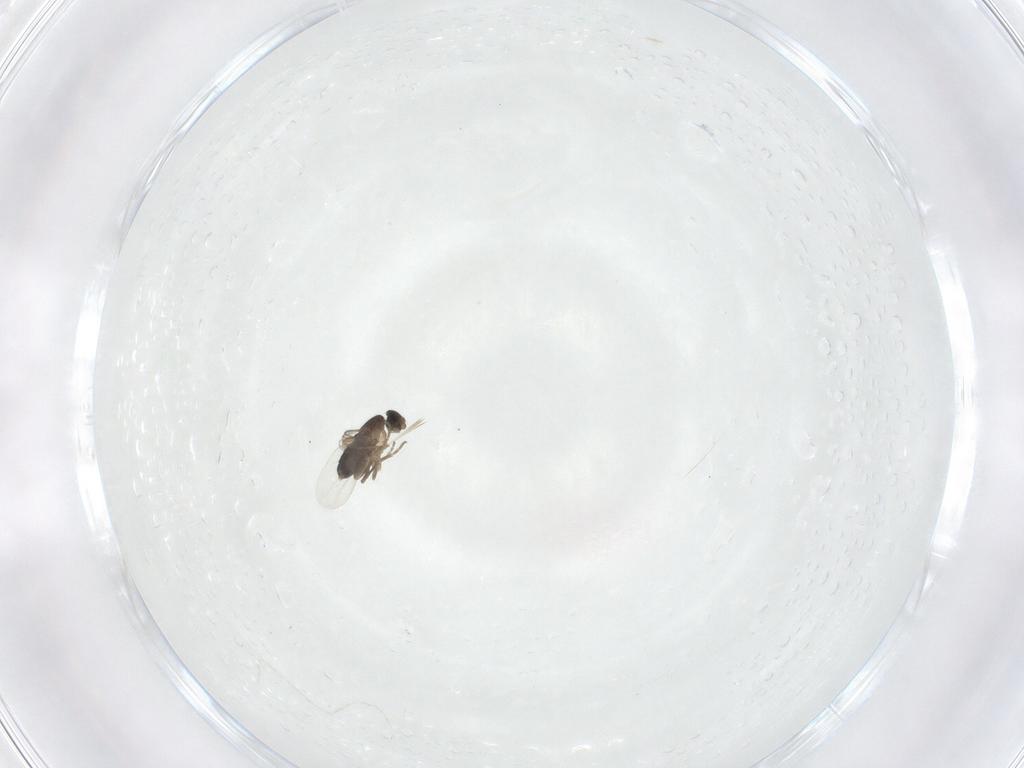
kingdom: Animalia
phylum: Arthropoda
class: Insecta
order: Diptera
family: Phoridae
